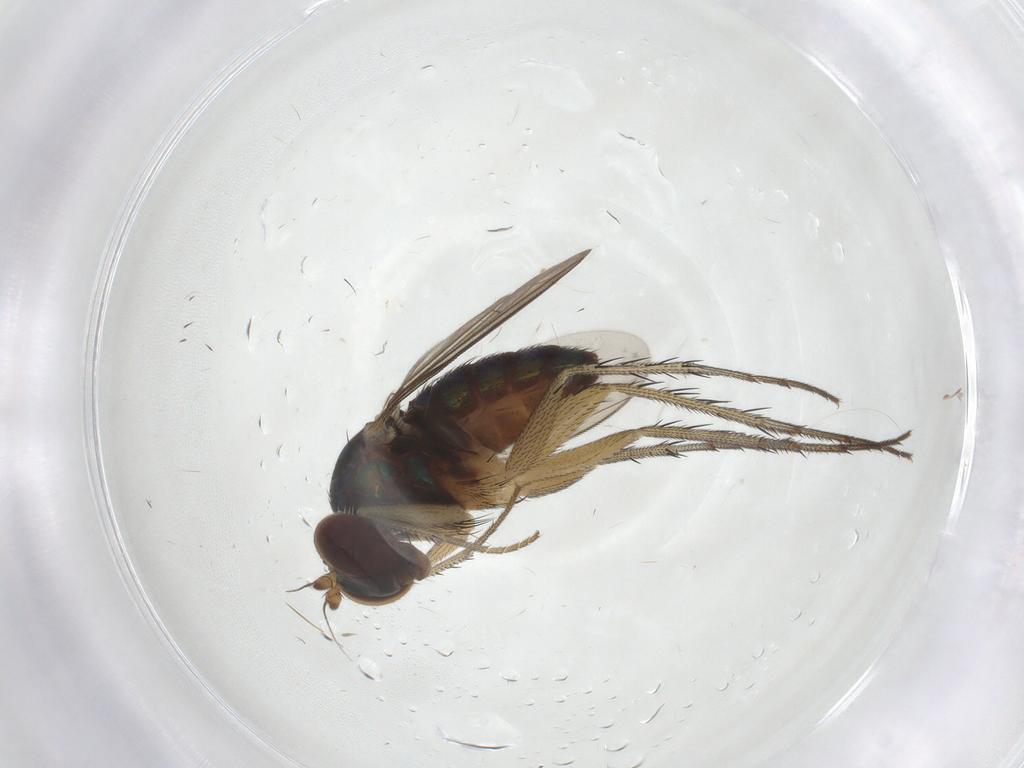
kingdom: Animalia
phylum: Arthropoda
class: Insecta
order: Diptera
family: Dolichopodidae
